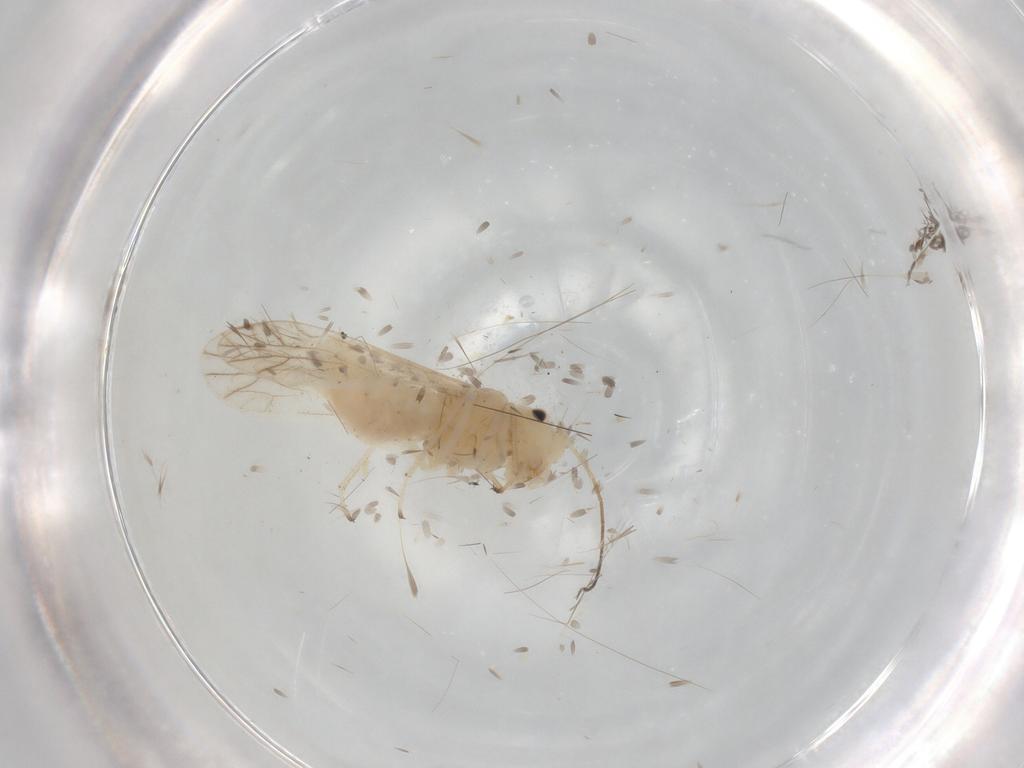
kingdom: Animalia
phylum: Arthropoda
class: Insecta
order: Psocodea
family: Caeciliusidae
